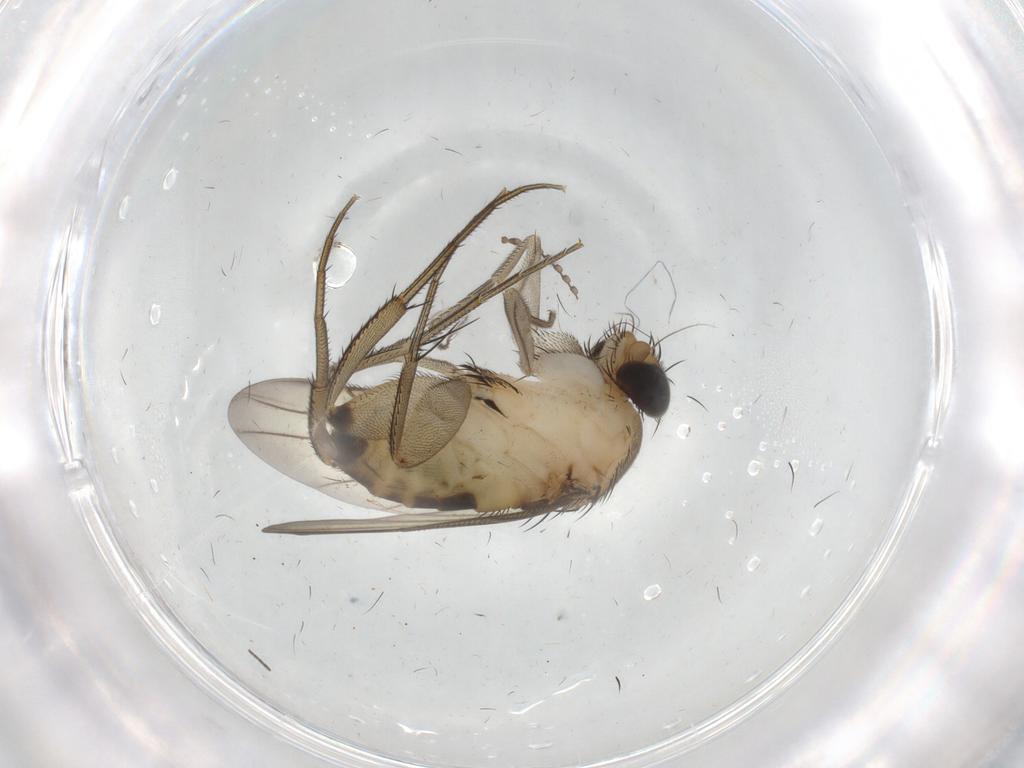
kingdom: Animalia
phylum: Arthropoda
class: Insecta
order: Diptera
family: Phoridae
